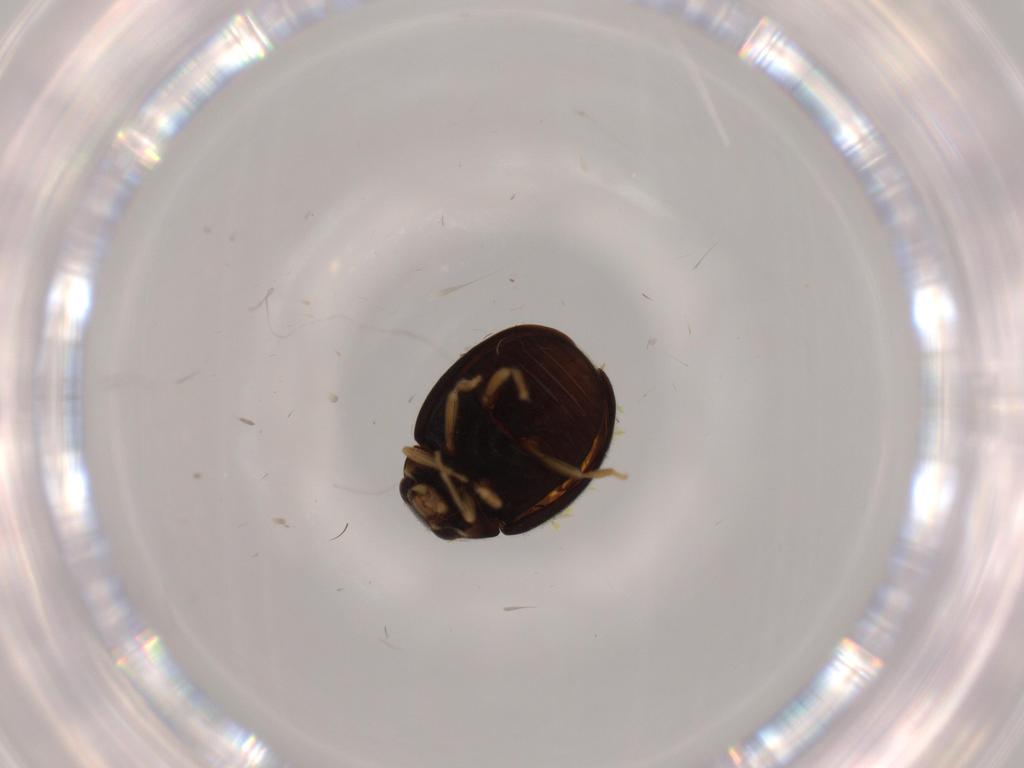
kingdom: Animalia
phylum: Arthropoda
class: Insecta
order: Coleoptera
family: Coccinellidae
